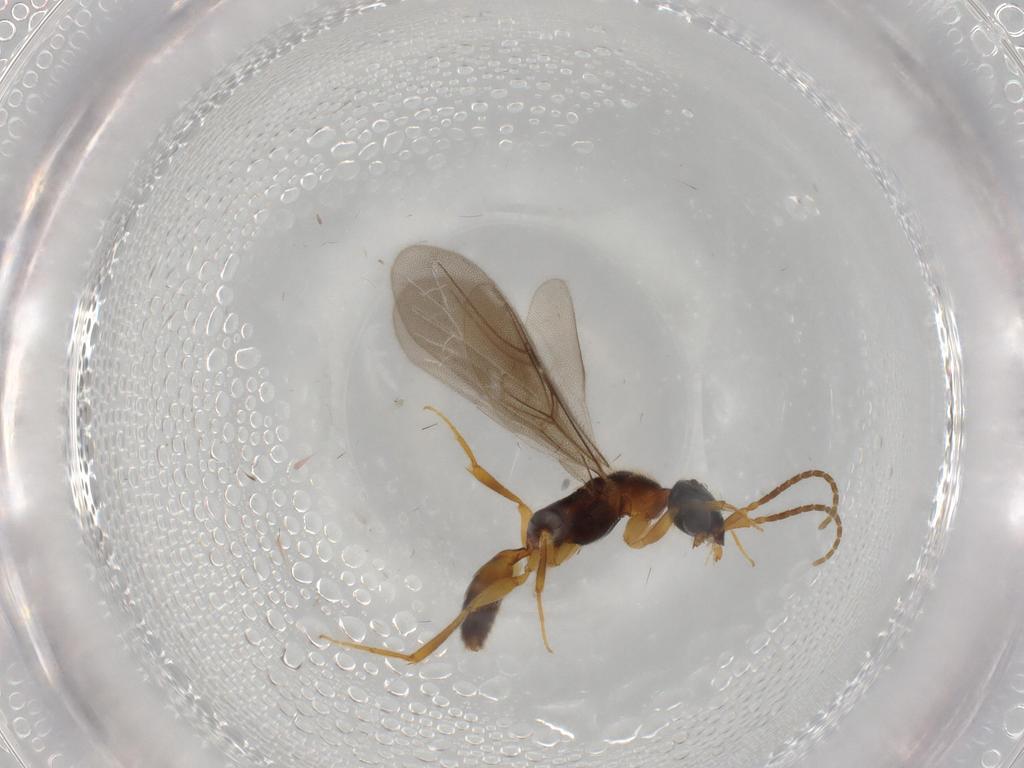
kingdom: Animalia
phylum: Arthropoda
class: Insecta
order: Hymenoptera
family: Bethylidae
